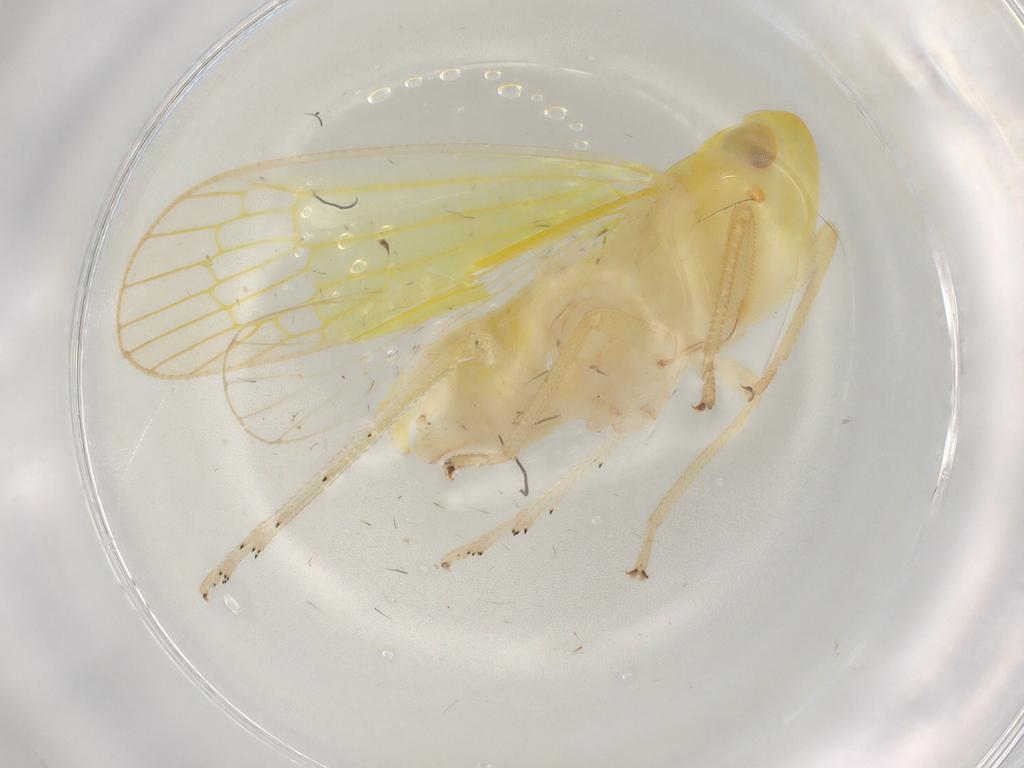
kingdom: Animalia
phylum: Arthropoda
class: Insecta
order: Hemiptera
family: Tropiduchidae
